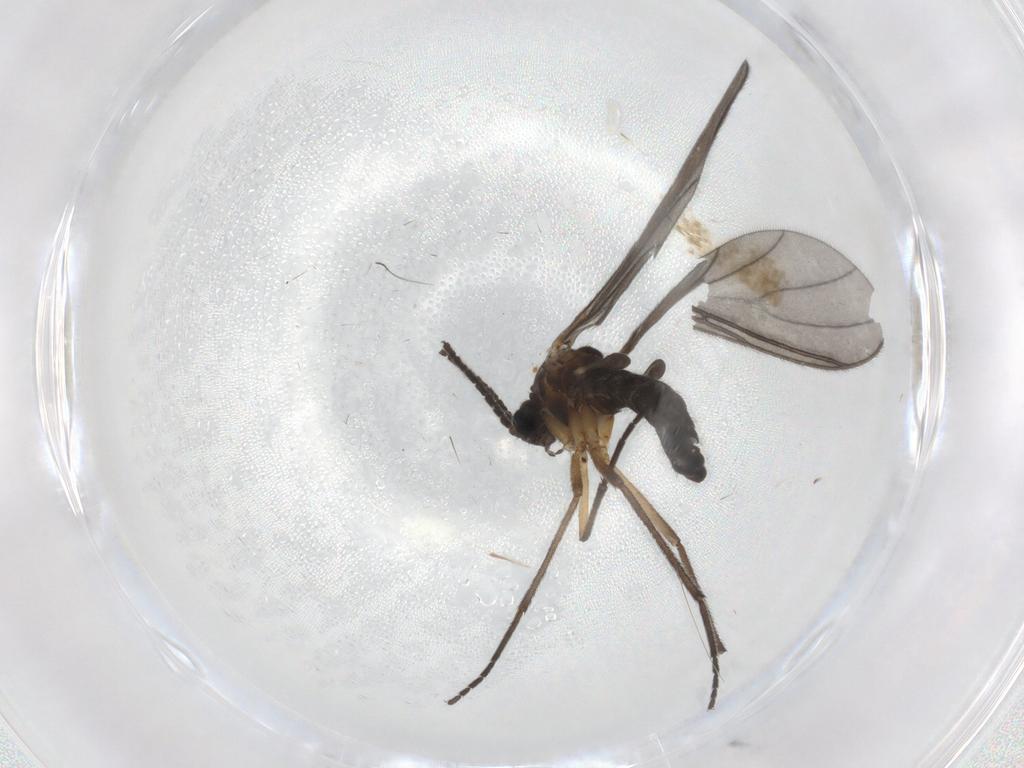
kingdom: Animalia
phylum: Arthropoda
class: Insecta
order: Diptera
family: Sciaridae
